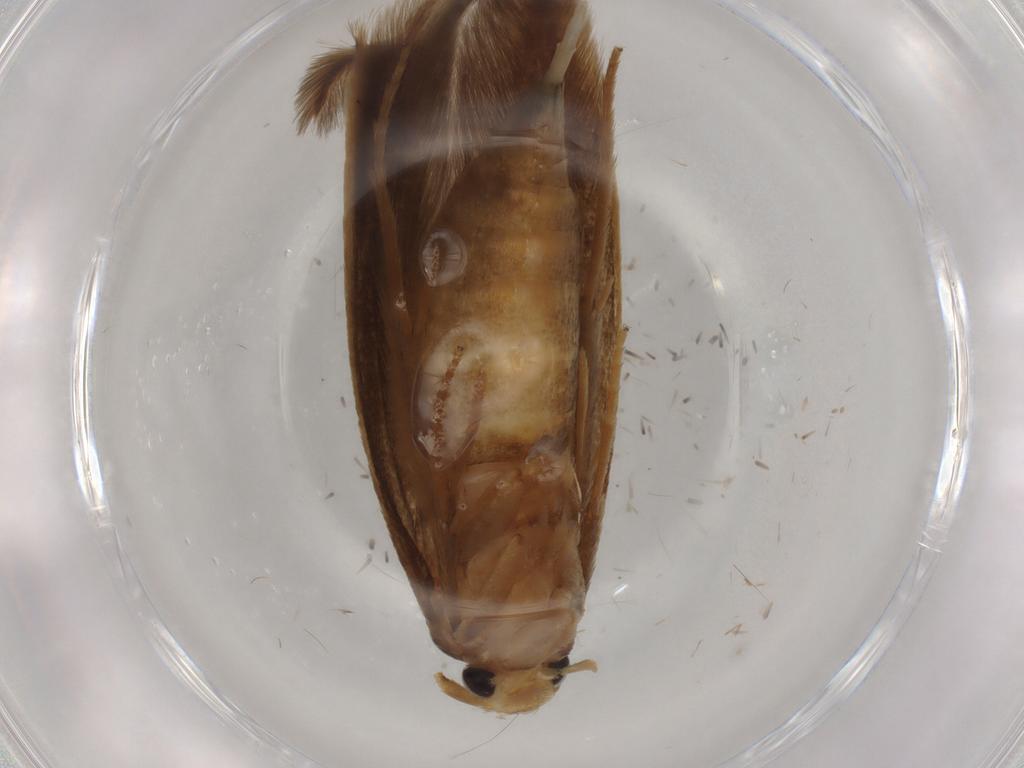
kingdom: Animalia
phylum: Arthropoda
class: Insecta
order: Lepidoptera
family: Tineidae
